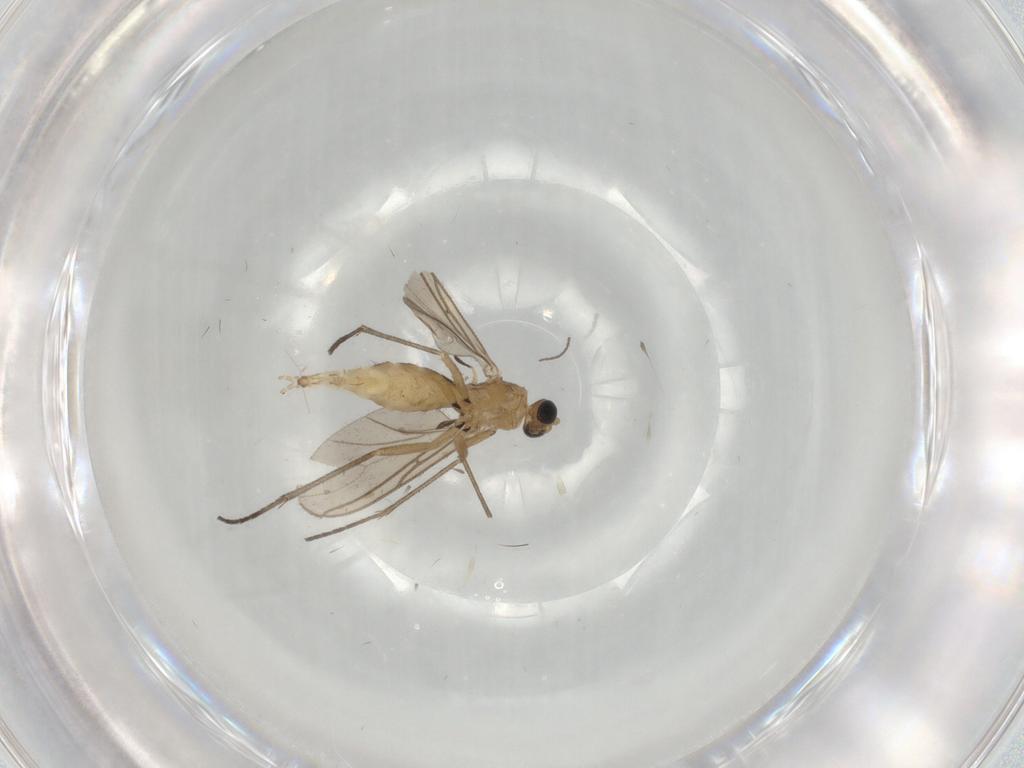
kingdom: Animalia
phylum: Arthropoda
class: Insecta
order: Diptera
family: Sciaridae
